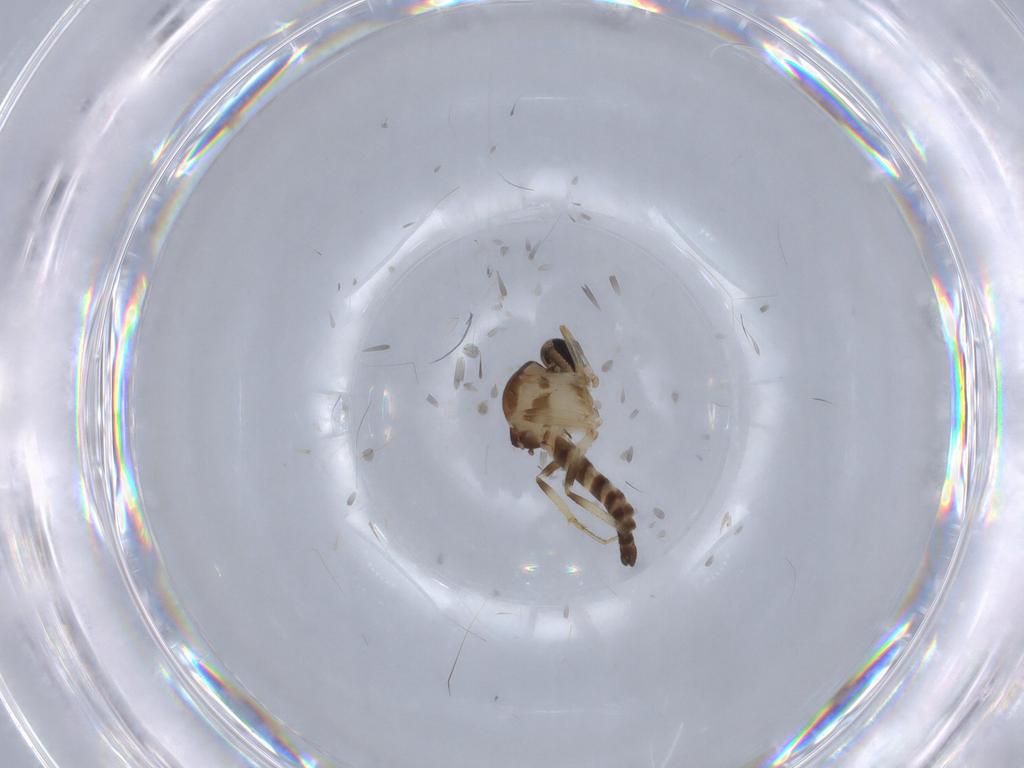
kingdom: Animalia
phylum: Arthropoda
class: Insecta
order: Diptera
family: Ceratopogonidae
